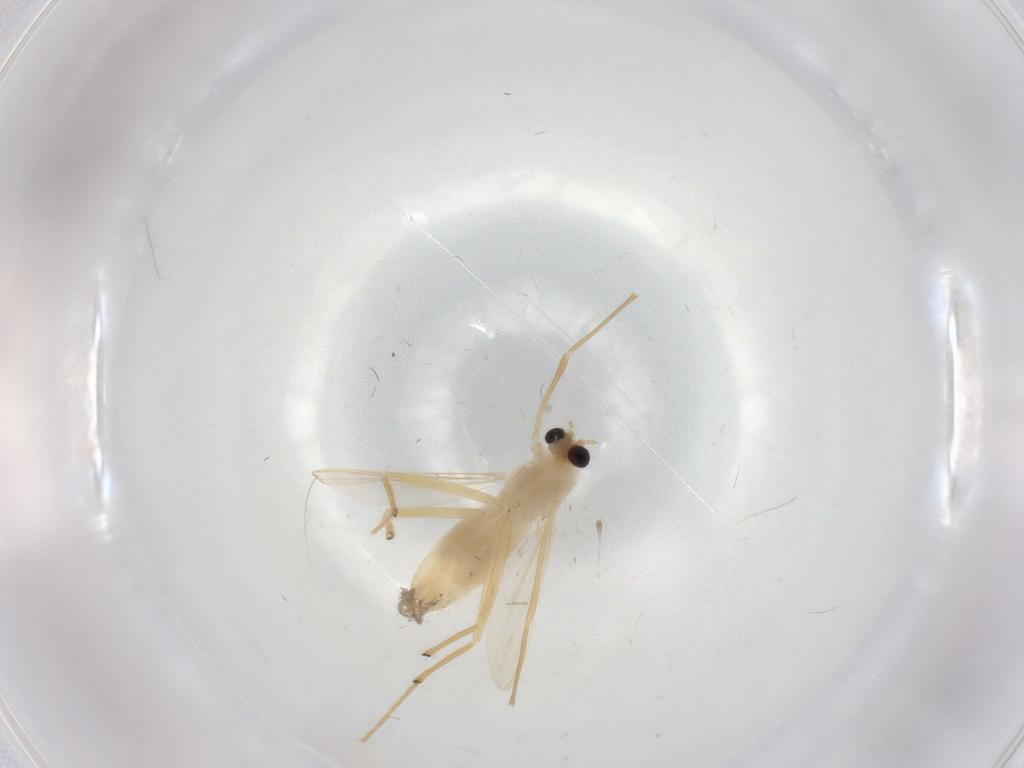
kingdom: Animalia
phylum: Arthropoda
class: Insecta
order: Diptera
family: Chironomidae
